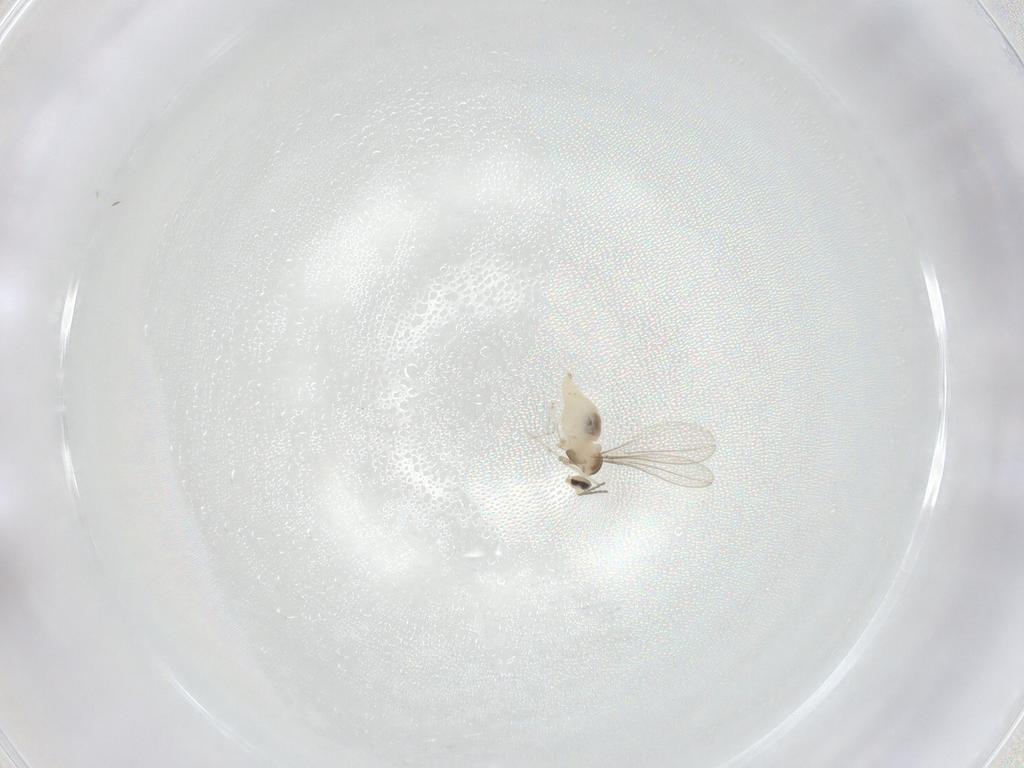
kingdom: Animalia
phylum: Arthropoda
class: Insecta
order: Diptera
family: Cecidomyiidae
